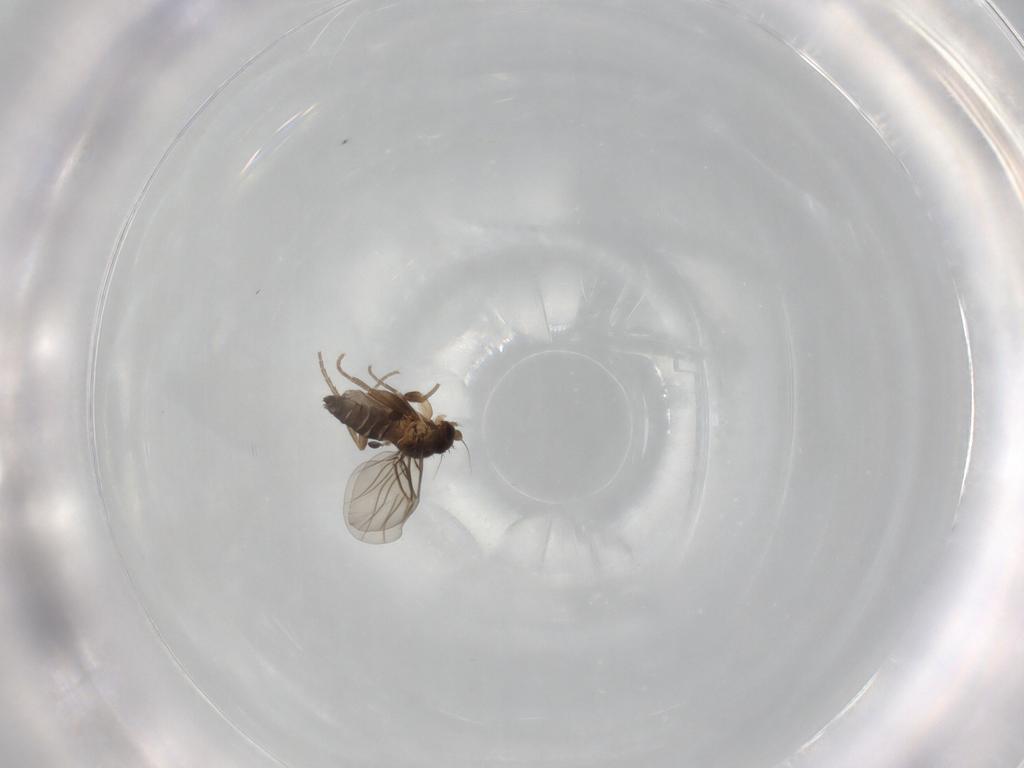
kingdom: Animalia
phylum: Arthropoda
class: Insecta
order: Diptera
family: Phoridae
